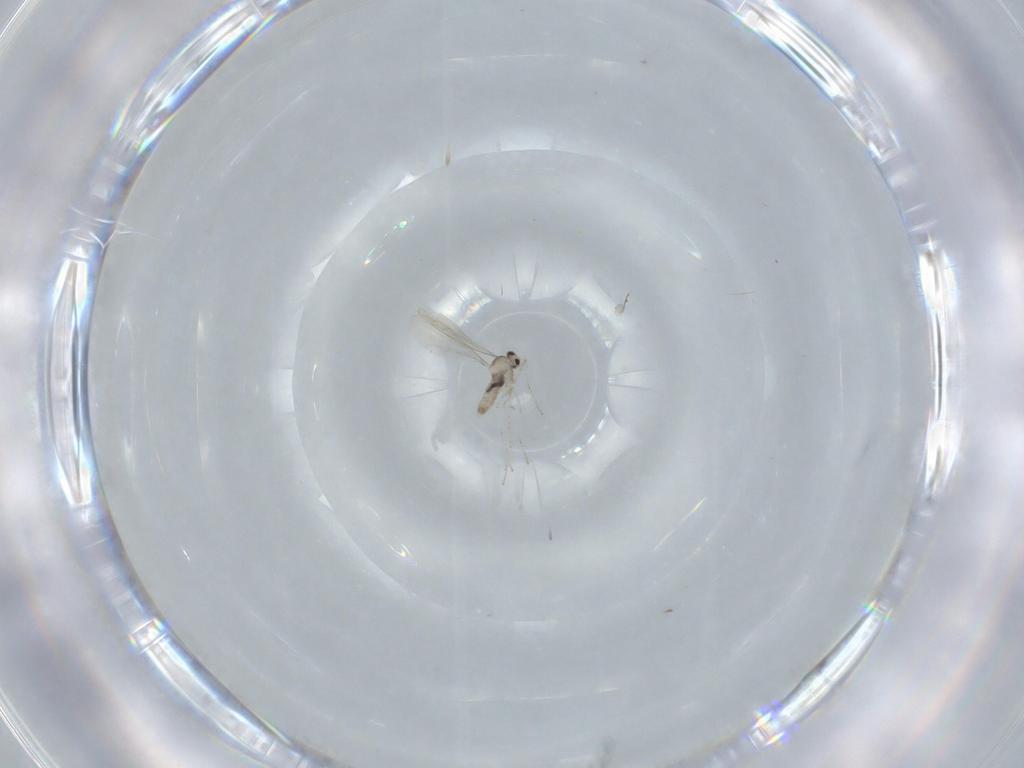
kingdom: Animalia
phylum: Arthropoda
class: Insecta
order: Diptera
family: Cecidomyiidae
